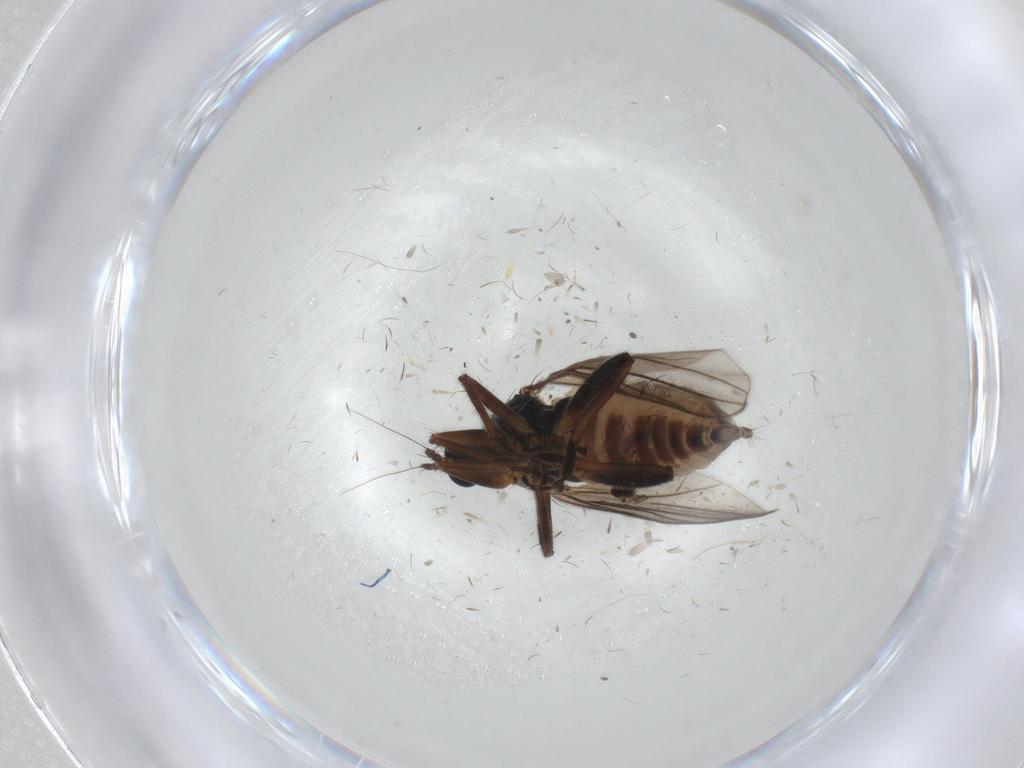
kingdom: Animalia
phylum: Arthropoda
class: Insecta
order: Diptera
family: Hybotidae
